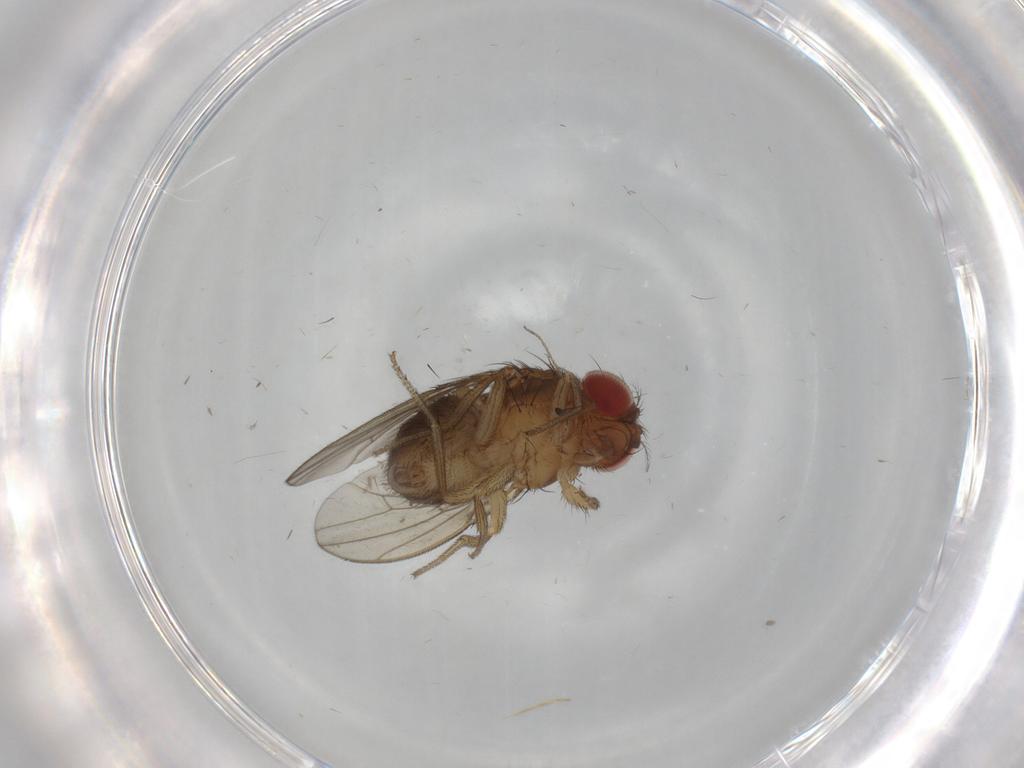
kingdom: Animalia
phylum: Arthropoda
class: Insecta
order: Diptera
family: Drosophilidae
